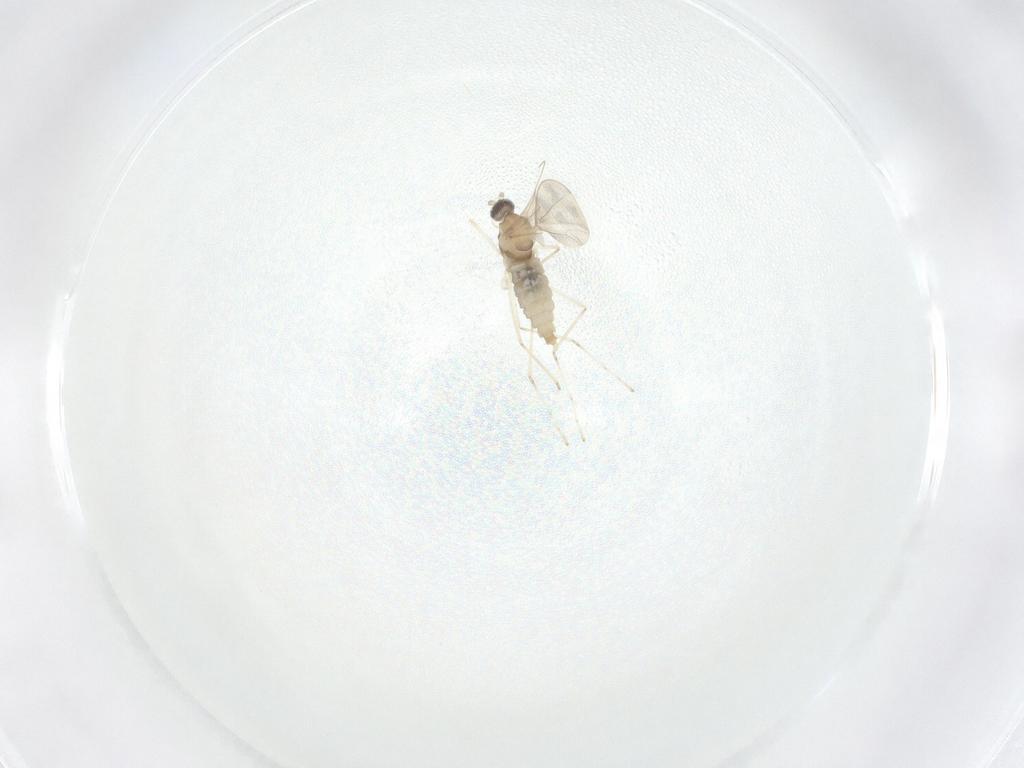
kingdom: Animalia
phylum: Arthropoda
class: Insecta
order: Diptera
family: Cecidomyiidae
